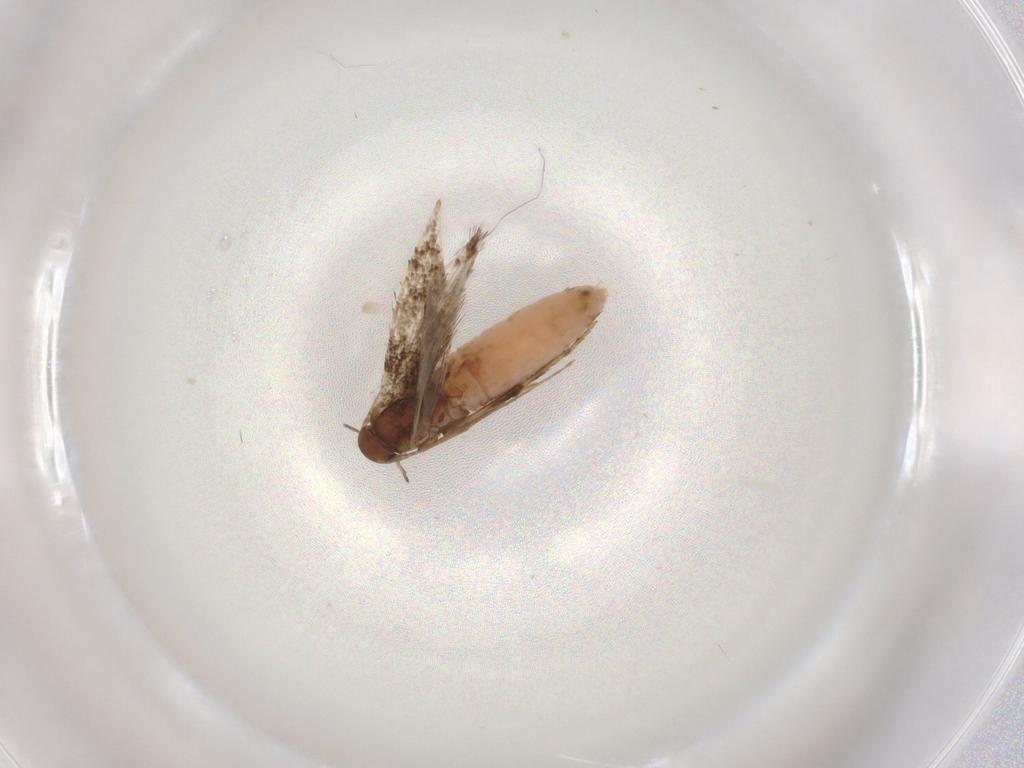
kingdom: Animalia
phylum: Arthropoda
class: Insecta
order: Lepidoptera
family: Elachistidae
